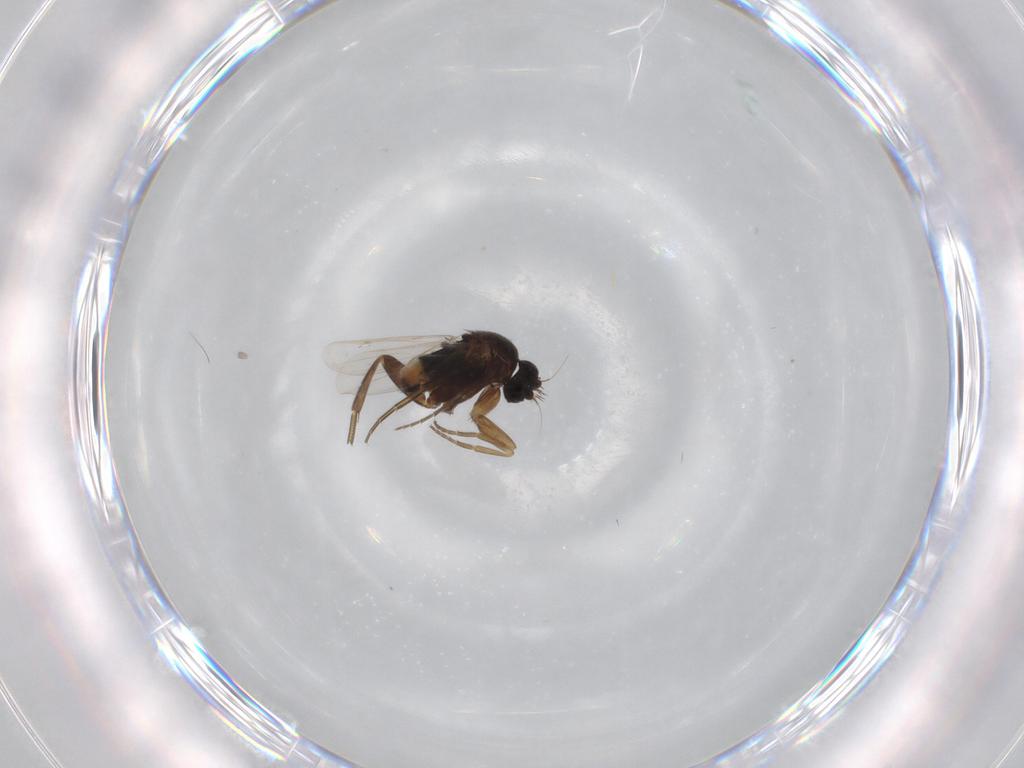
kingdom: Animalia
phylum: Arthropoda
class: Insecta
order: Diptera
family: Phoridae
